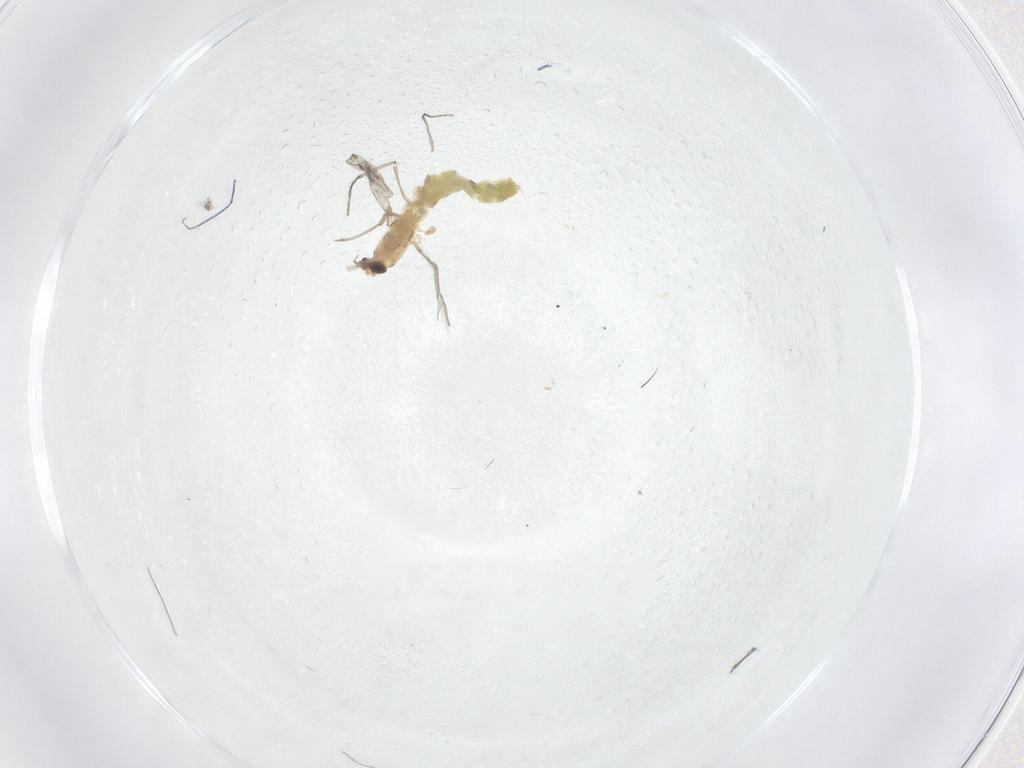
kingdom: Animalia
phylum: Arthropoda
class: Insecta
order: Diptera
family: Chironomidae
